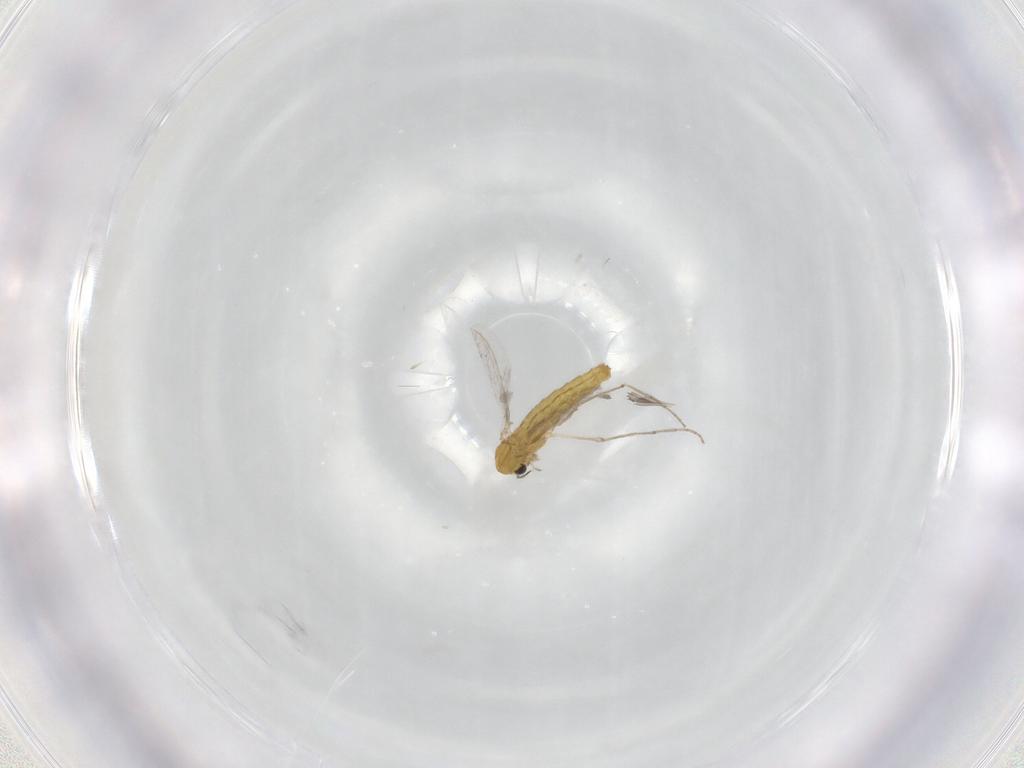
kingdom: Animalia
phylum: Arthropoda
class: Insecta
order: Diptera
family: Chironomidae
